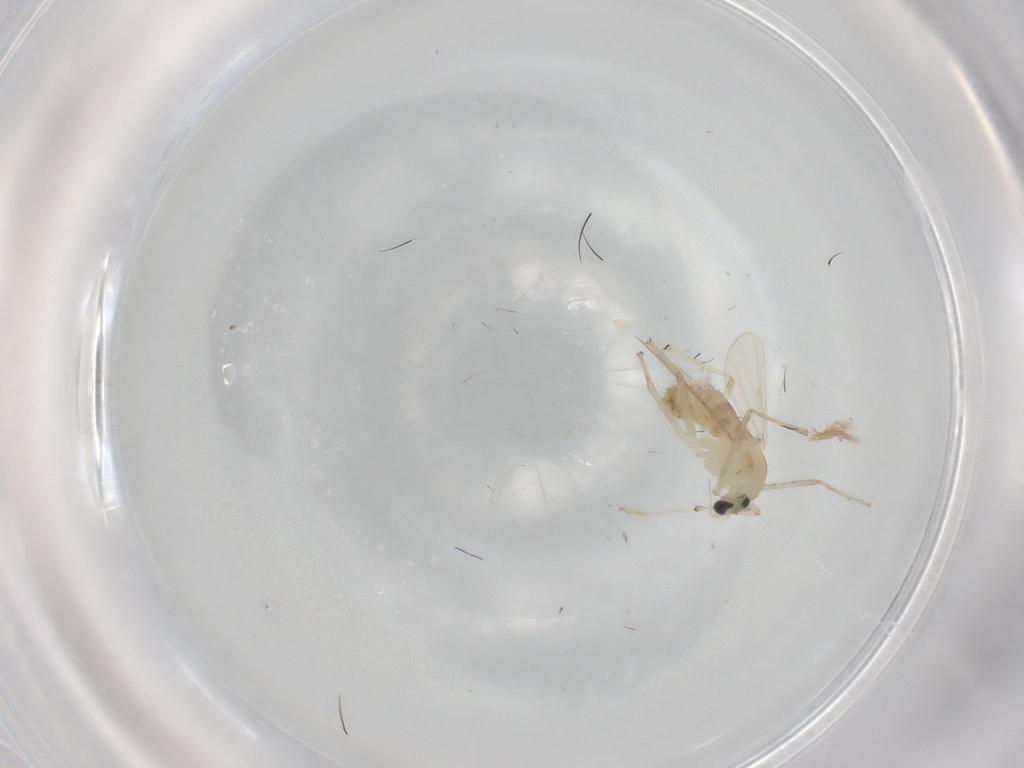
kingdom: Animalia
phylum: Arthropoda
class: Insecta
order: Diptera
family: Chironomidae
